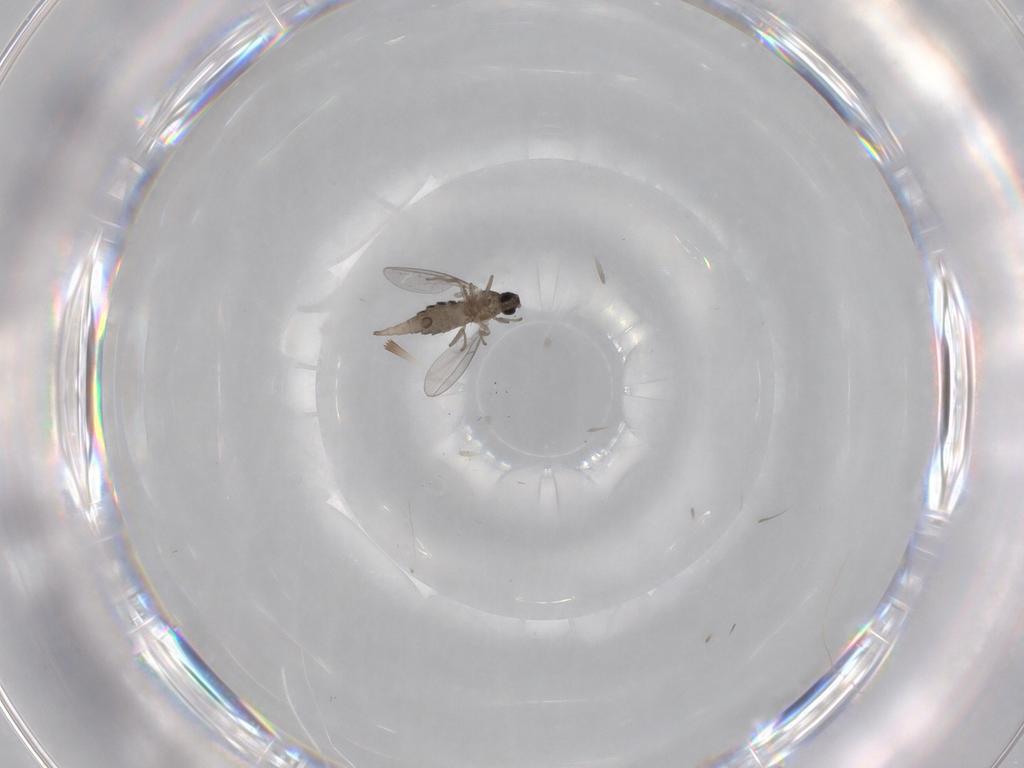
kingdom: Animalia
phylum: Arthropoda
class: Insecta
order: Diptera
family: Cecidomyiidae
